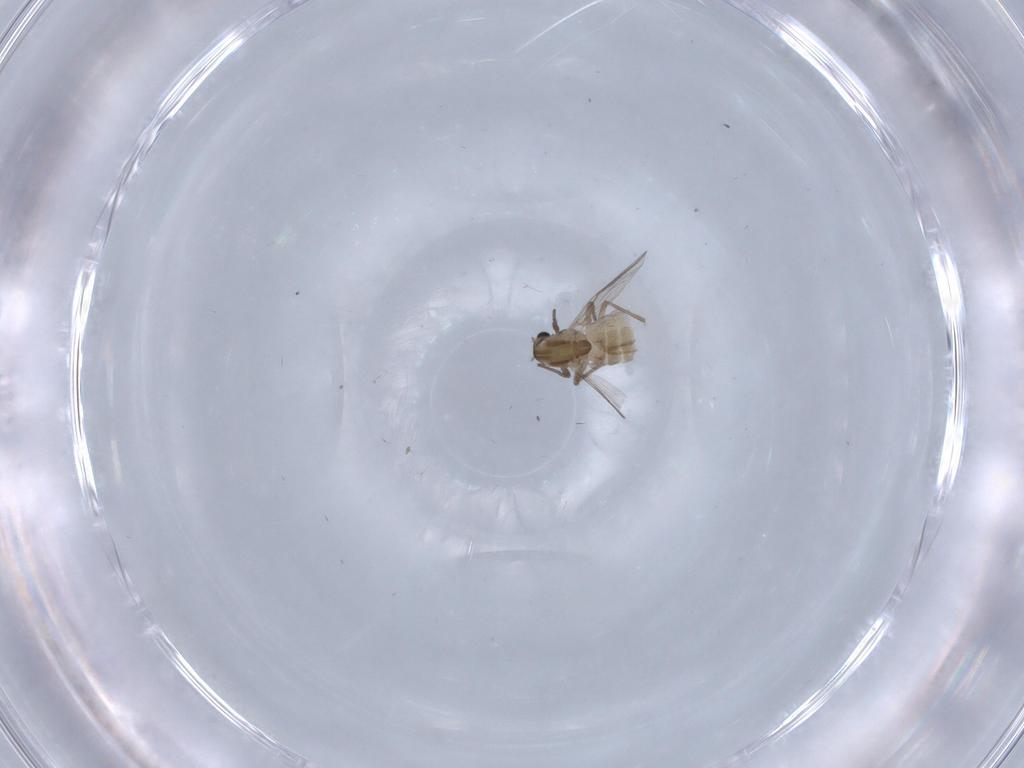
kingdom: Animalia
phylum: Arthropoda
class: Insecta
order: Diptera
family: Chironomidae
